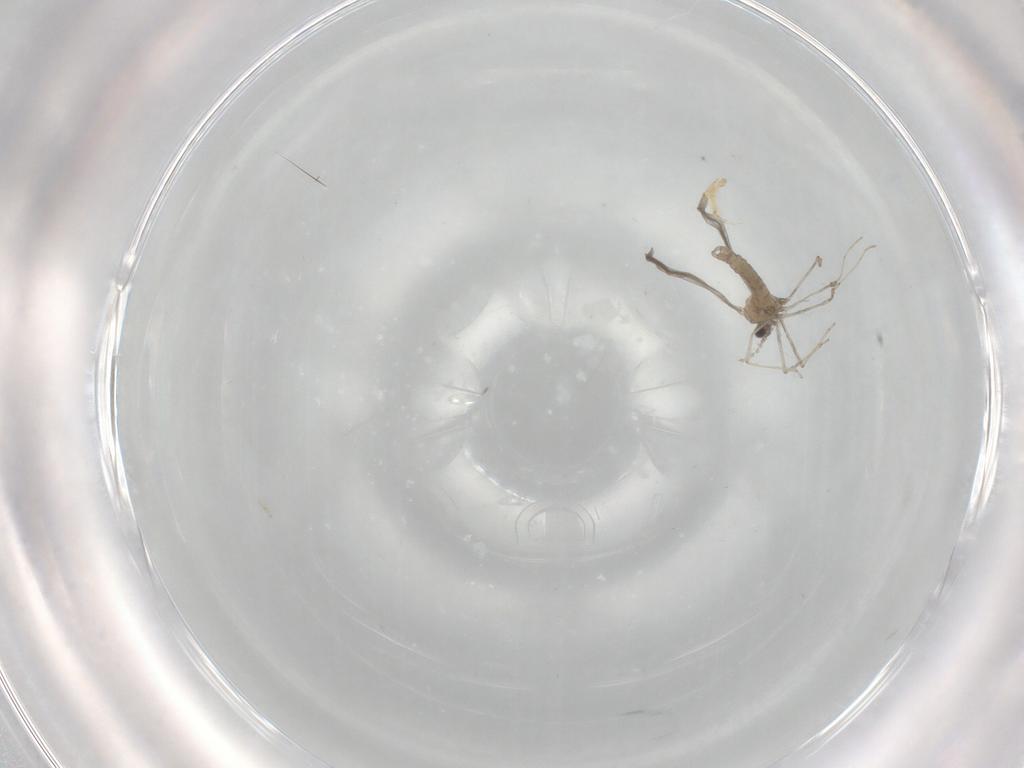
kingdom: Animalia
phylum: Arthropoda
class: Insecta
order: Diptera
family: Cecidomyiidae
